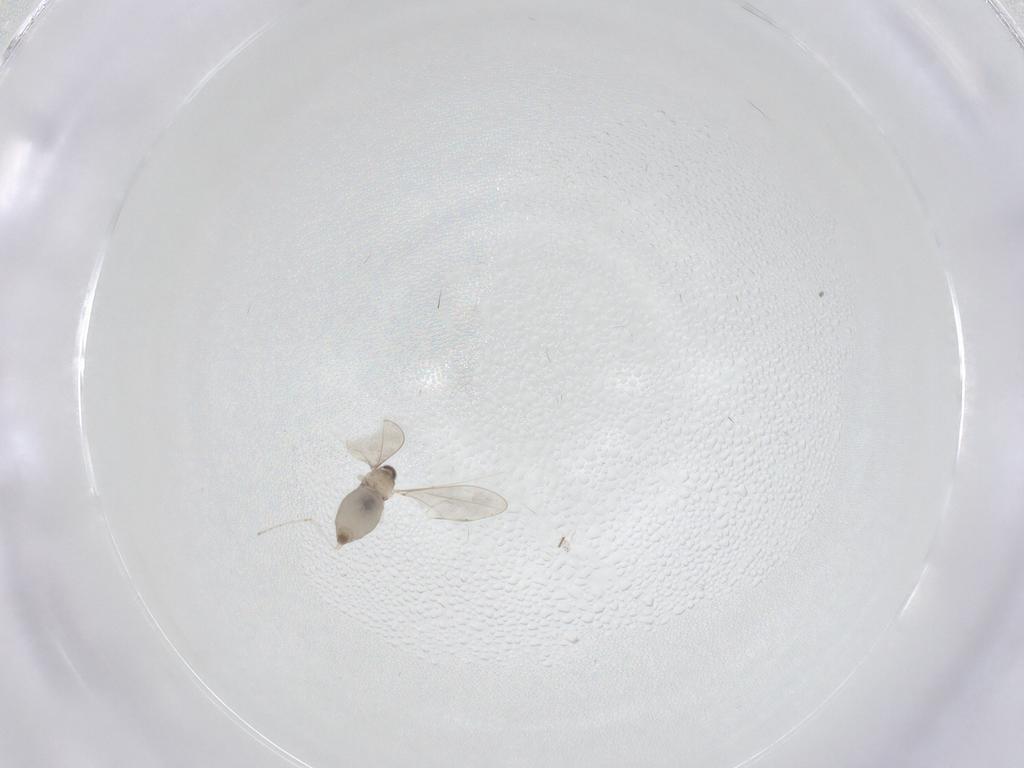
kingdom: Animalia
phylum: Arthropoda
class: Insecta
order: Diptera
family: Cecidomyiidae
